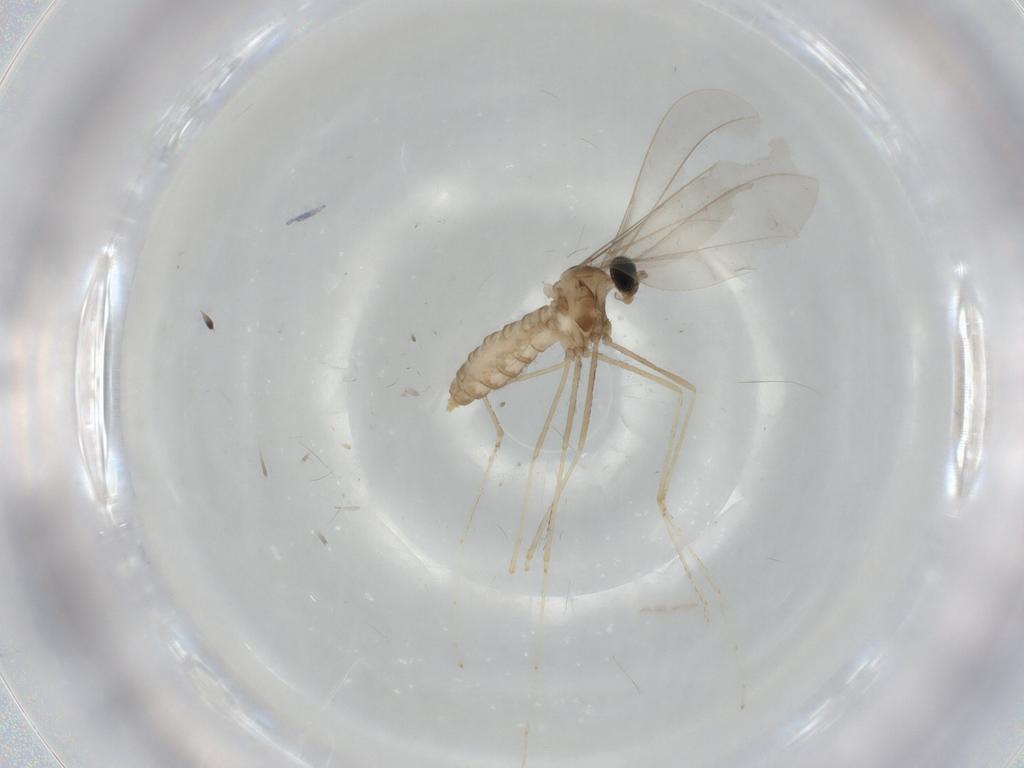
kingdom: Animalia
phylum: Arthropoda
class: Insecta
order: Diptera
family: Cecidomyiidae
